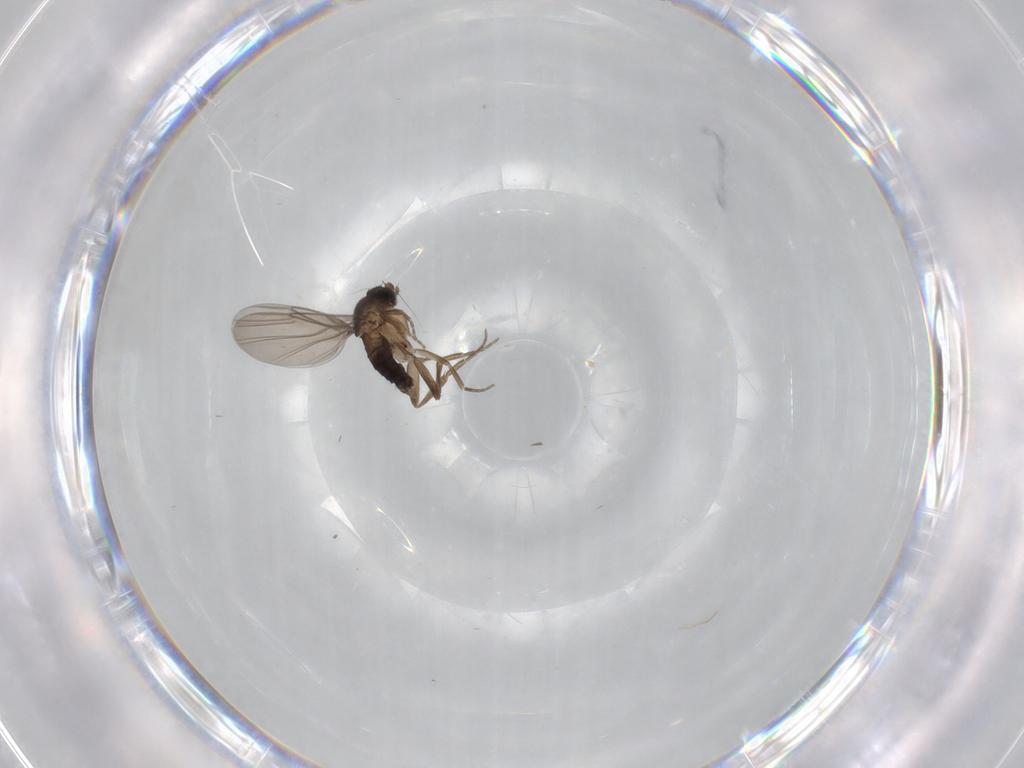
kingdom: Animalia
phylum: Arthropoda
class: Insecta
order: Diptera
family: Phoridae
